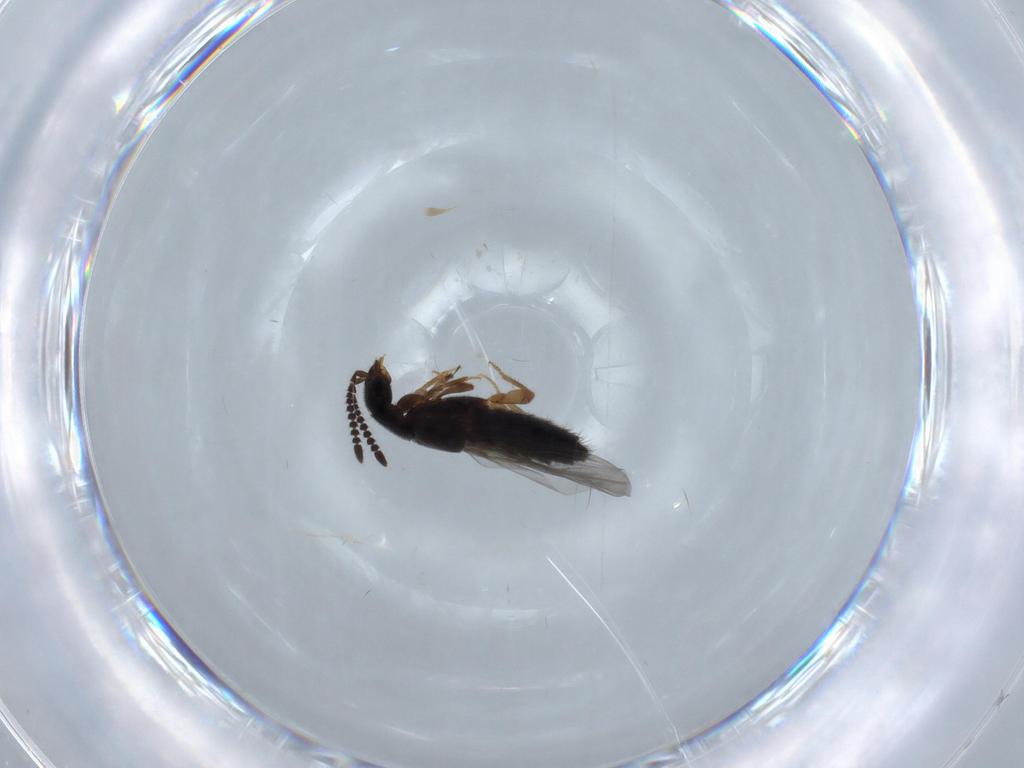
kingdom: Animalia
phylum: Arthropoda
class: Insecta
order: Coleoptera
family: Staphylinidae
